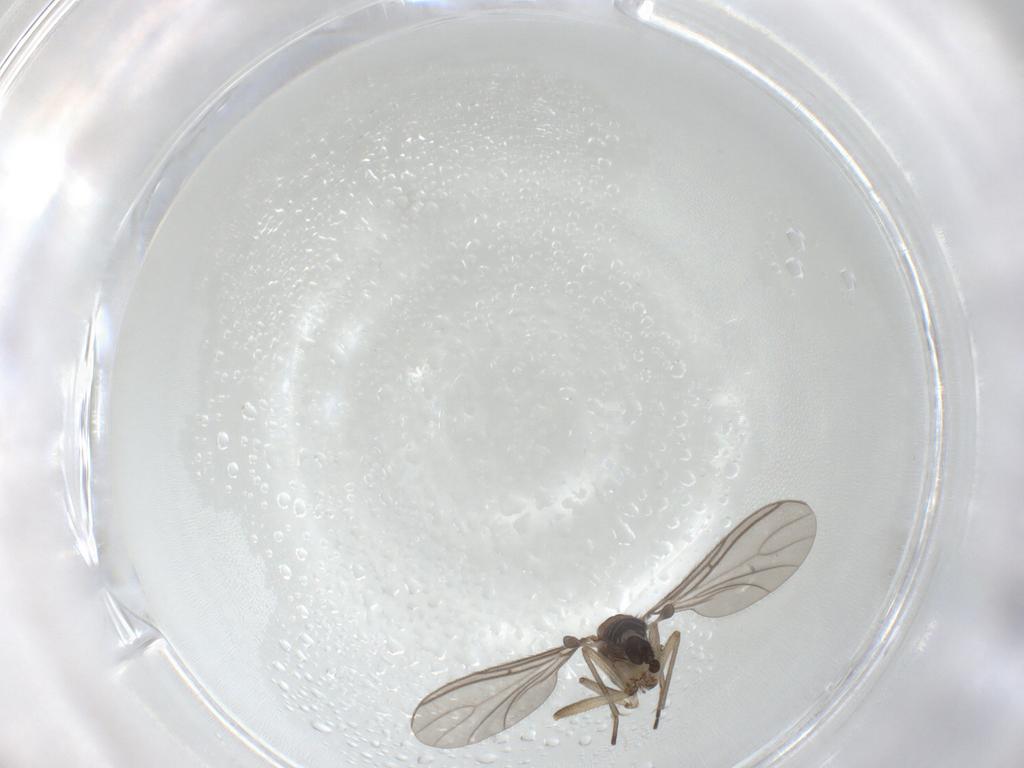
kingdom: Animalia
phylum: Arthropoda
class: Insecta
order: Diptera
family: Sciaridae
